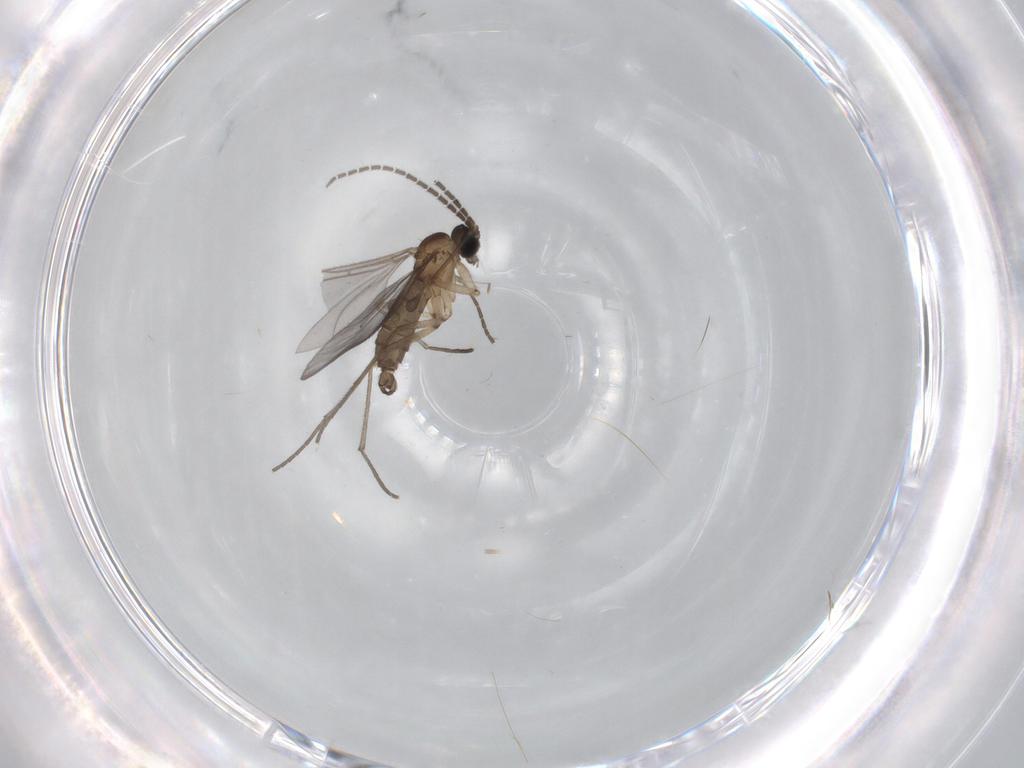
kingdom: Animalia
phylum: Arthropoda
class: Insecta
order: Diptera
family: Sciaridae
